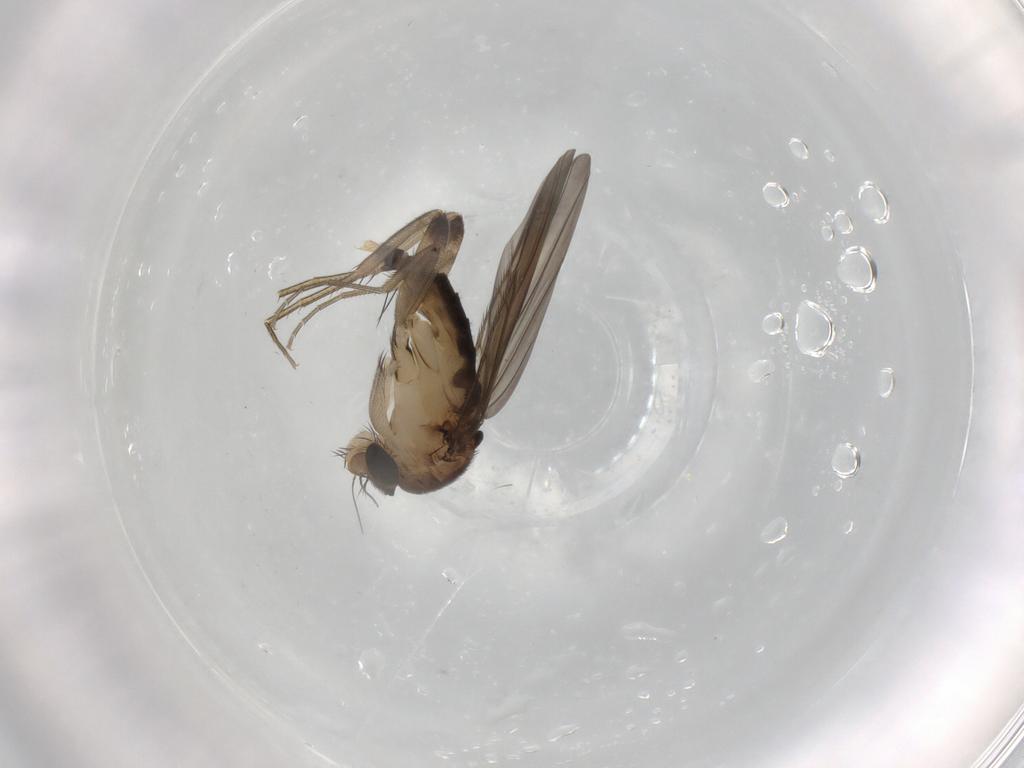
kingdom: Animalia
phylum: Arthropoda
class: Insecta
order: Diptera
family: Phoridae
